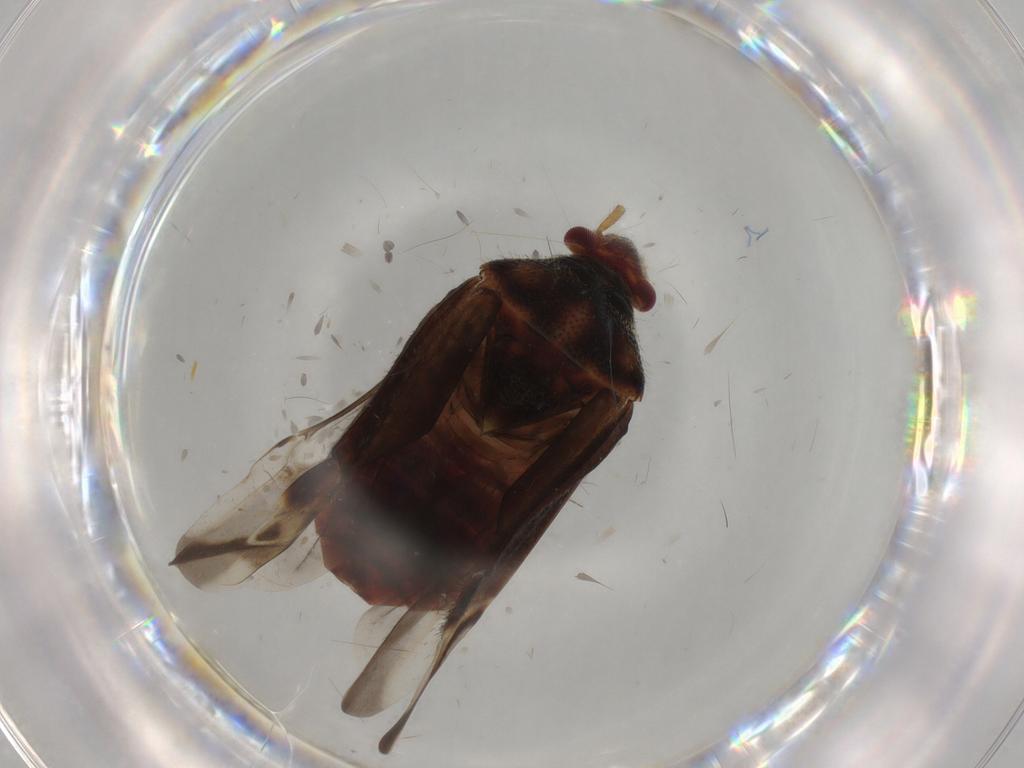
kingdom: Animalia
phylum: Arthropoda
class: Insecta
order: Hemiptera
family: Miridae
